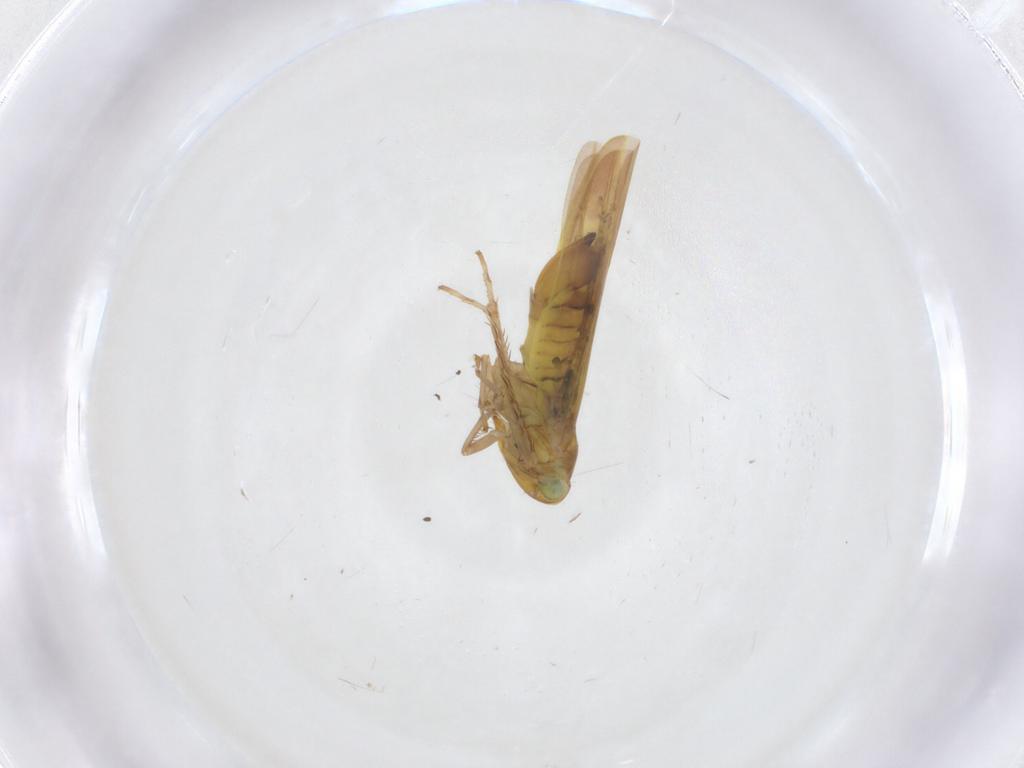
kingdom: Animalia
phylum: Arthropoda
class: Insecta
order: Hemiptera
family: Cicadellidae
